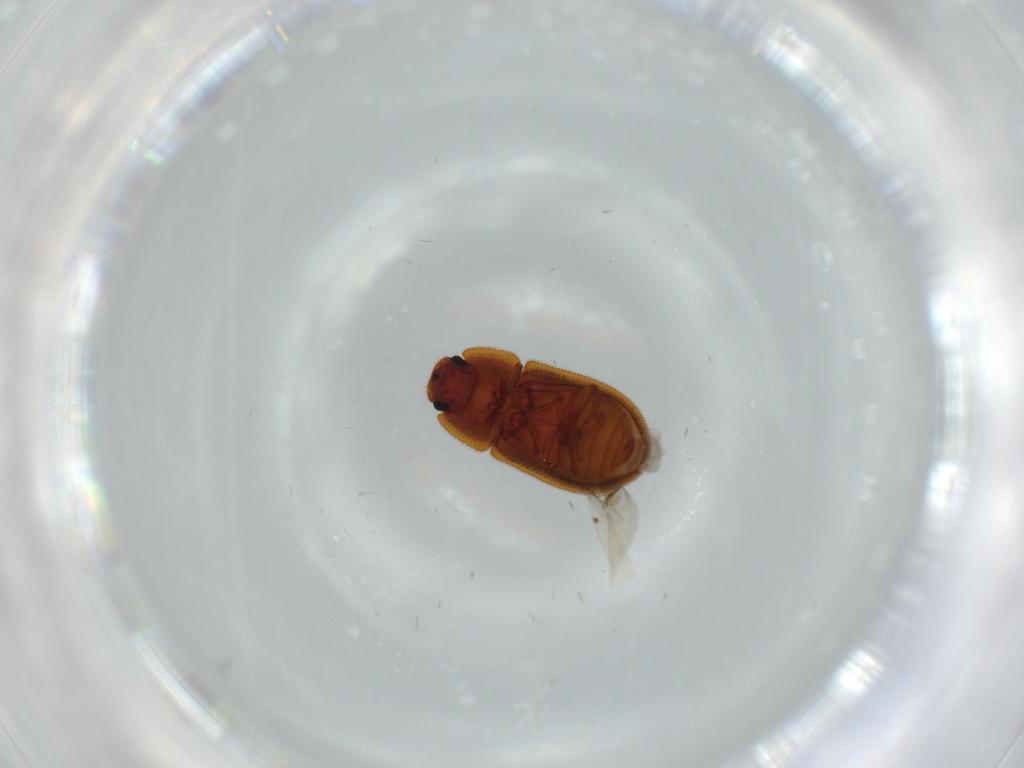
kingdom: Animalia
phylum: Arthropoda
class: Insecta
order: Coleoptera
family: Zopheridae
